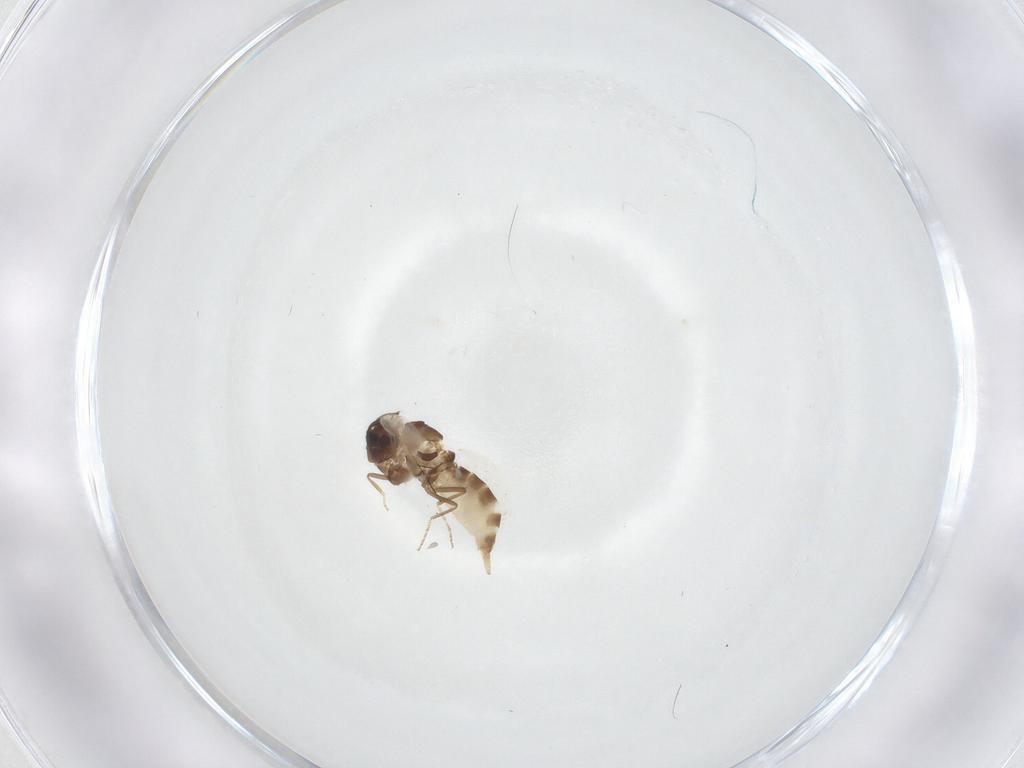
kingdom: Animalia
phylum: Arthropoda
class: Insecta
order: Diptera
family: Tabanidae
